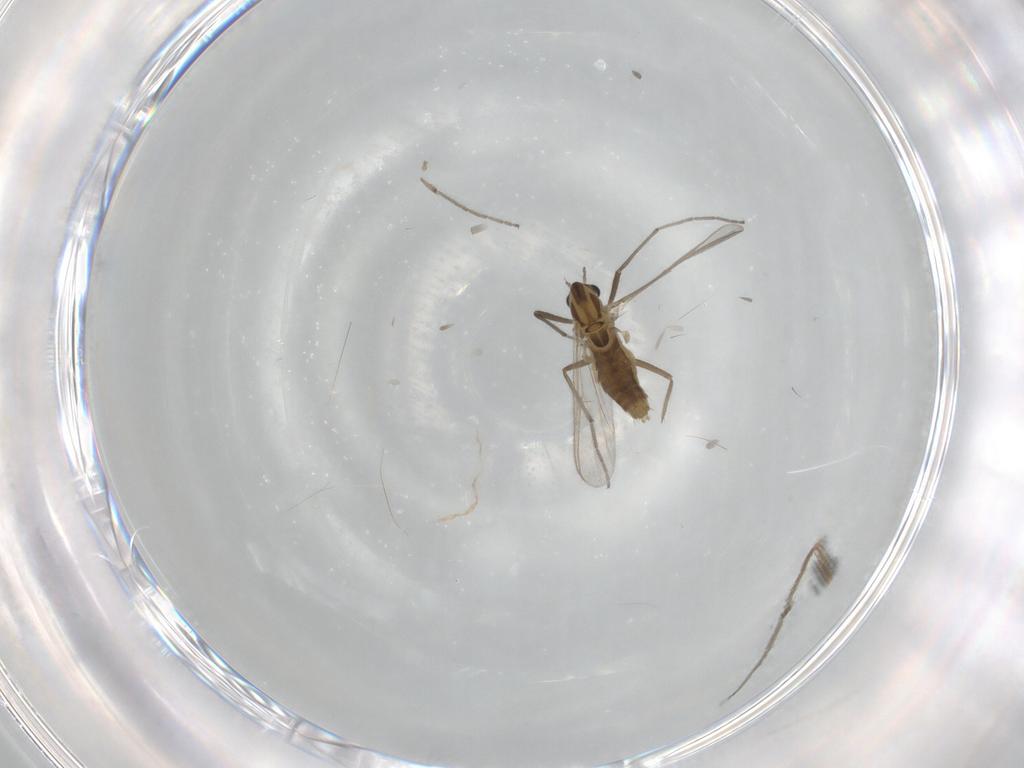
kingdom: Animalia
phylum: Arthropoda
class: Insecta
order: Diptera
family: Chironomidae
